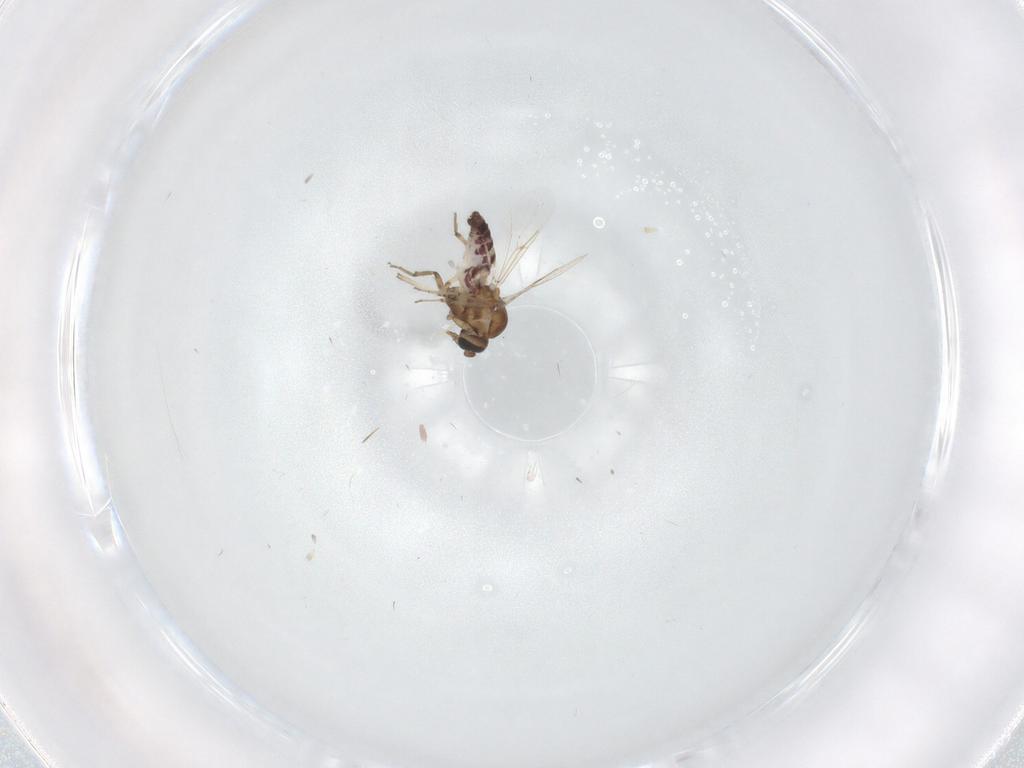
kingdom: Animalia
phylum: Arthropoda
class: Insecta
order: Diptera
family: Ceratopogonidae
